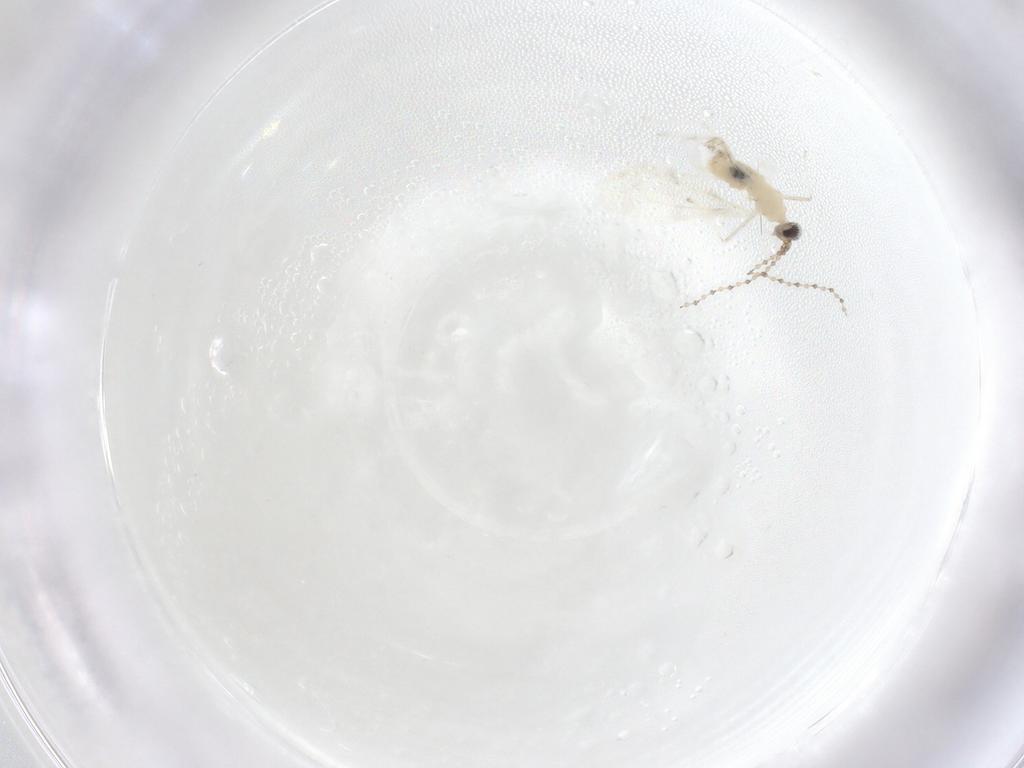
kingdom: Animalia
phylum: Arthropoda
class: Insecta
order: Diptera
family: Cecidomyiidae
